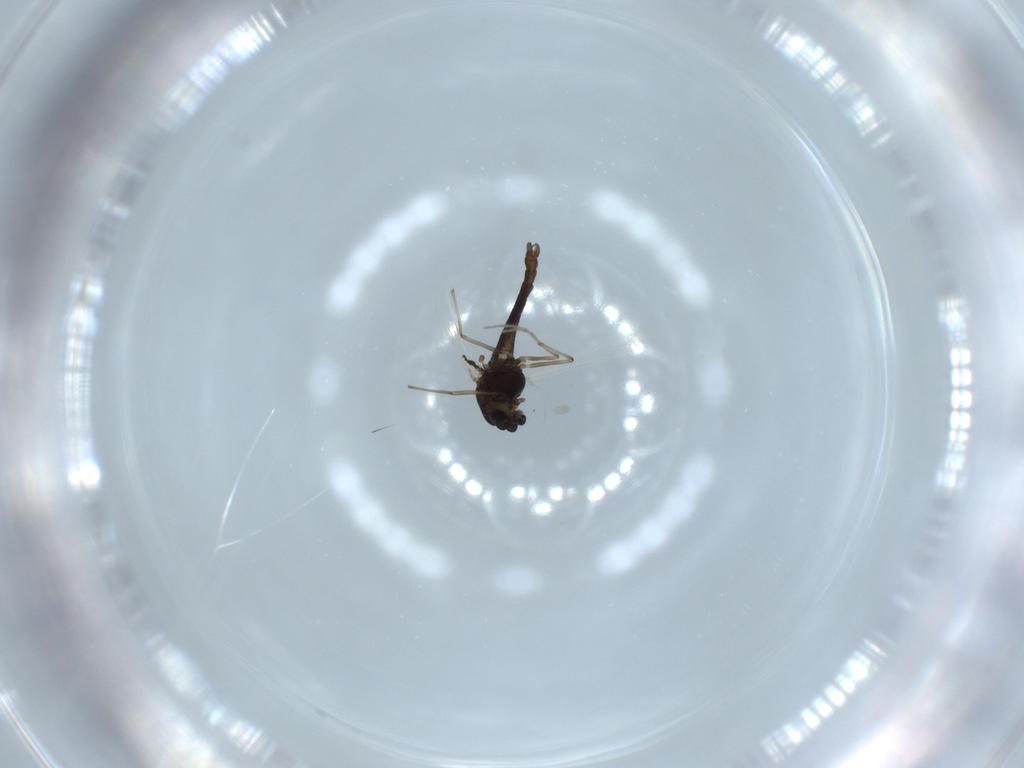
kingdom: Animalia
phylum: Arthropoda
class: Insecta
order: Diptera
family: Chironomidae
